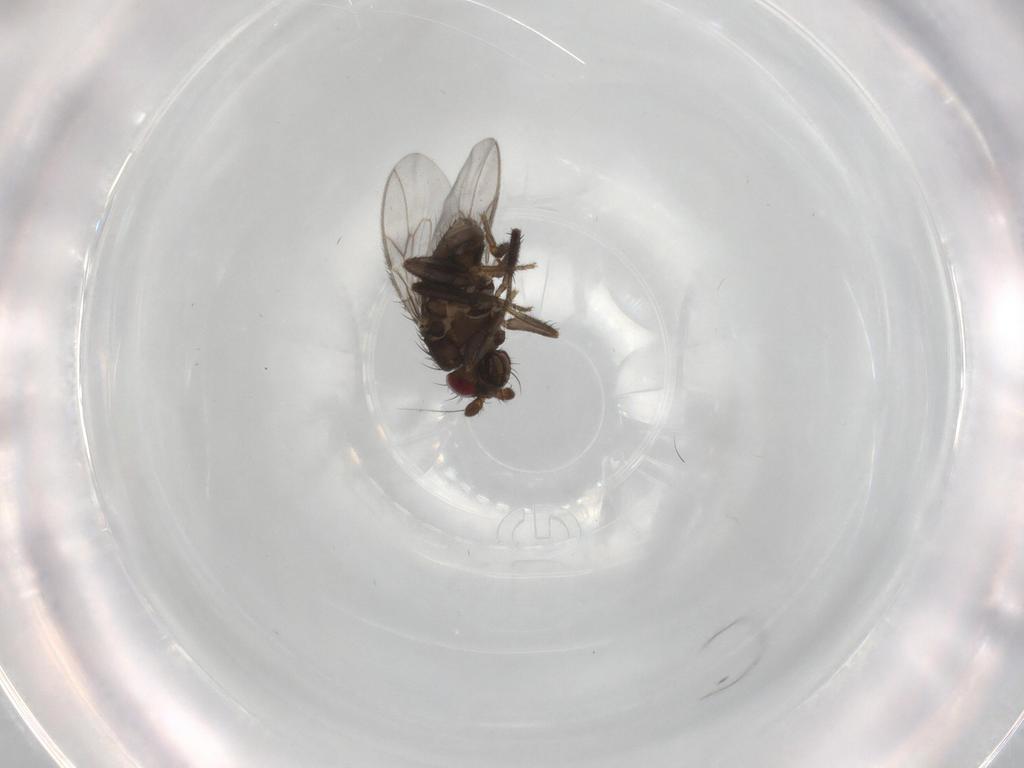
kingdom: Animalia
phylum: Arthropoda
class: Insecta
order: Diptera
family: Sphaeroceridae
